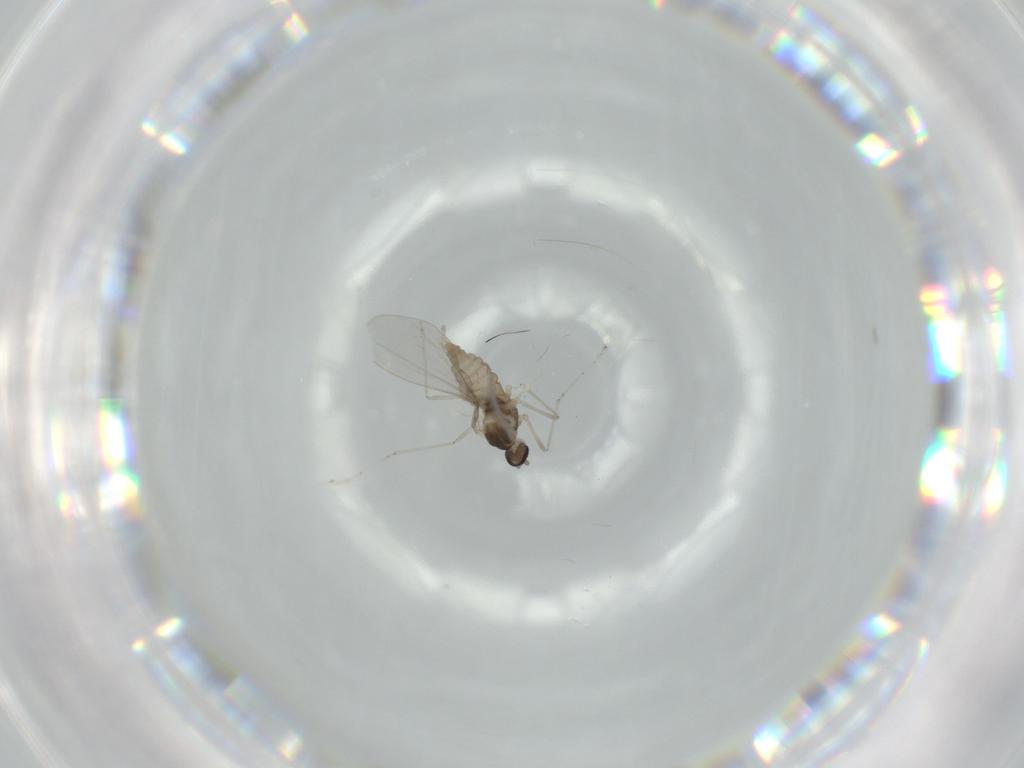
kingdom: Animalia
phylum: Arthropoda
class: Insecta
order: Diptera
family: Cecidomyiidae
